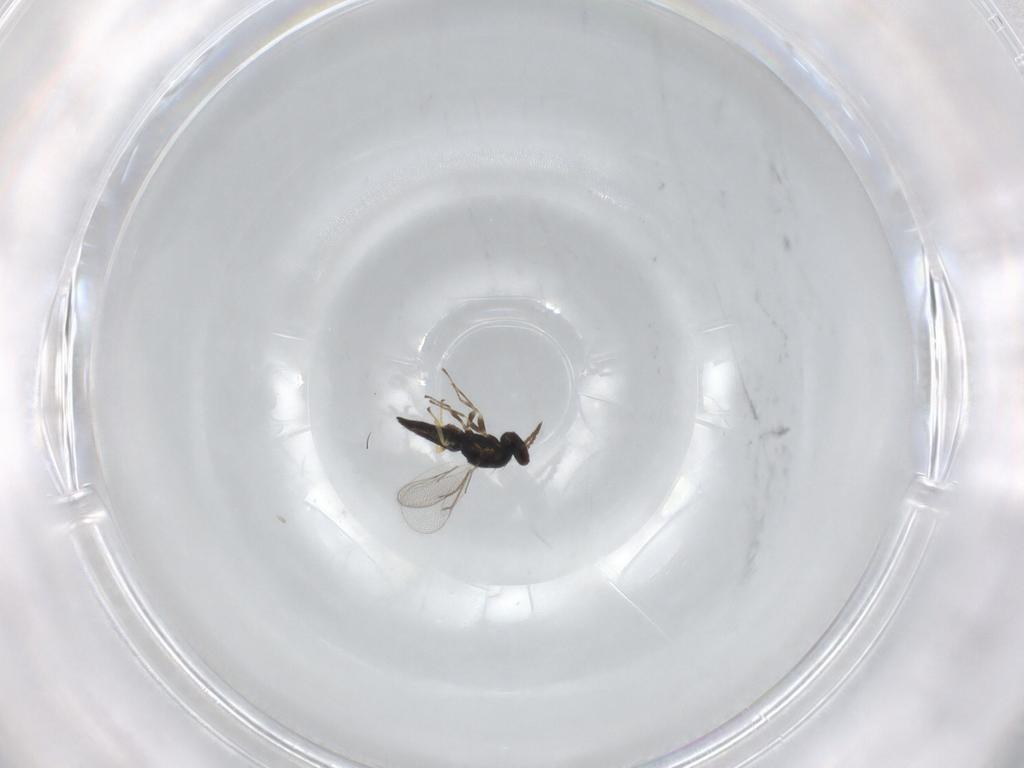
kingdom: Animalia
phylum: Arthropoda
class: Insecta
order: Hymenoptera
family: Eulophidae
